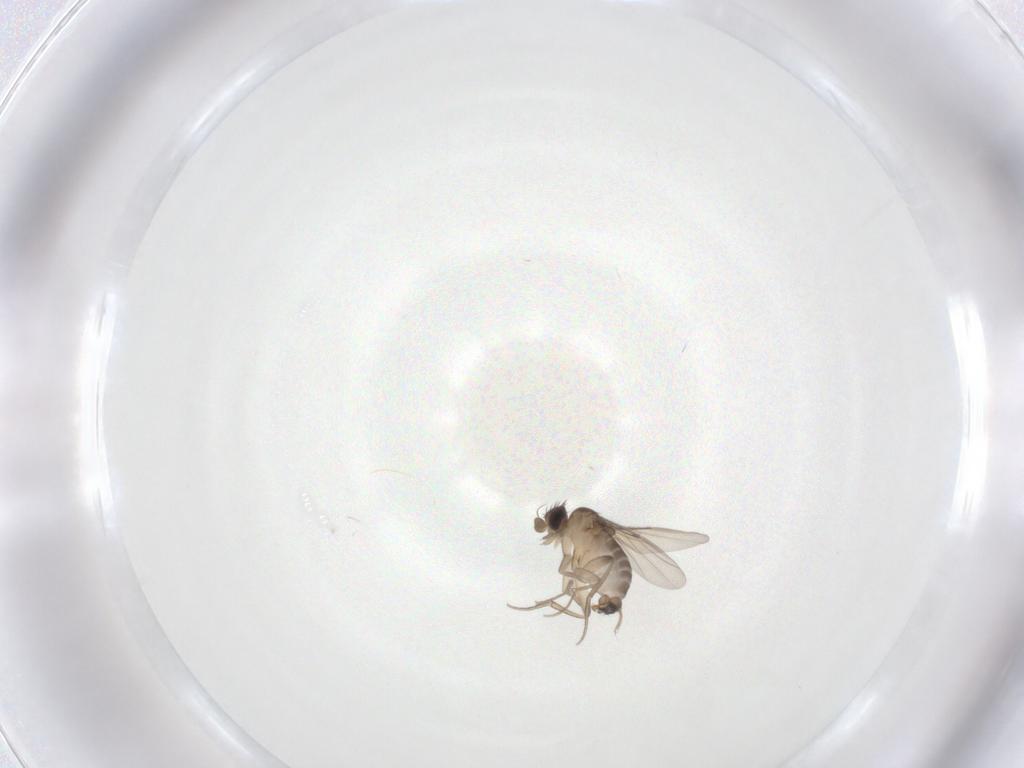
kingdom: Animalia
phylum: Arthropoda
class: Insecta
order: Diptera
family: Phoridae
